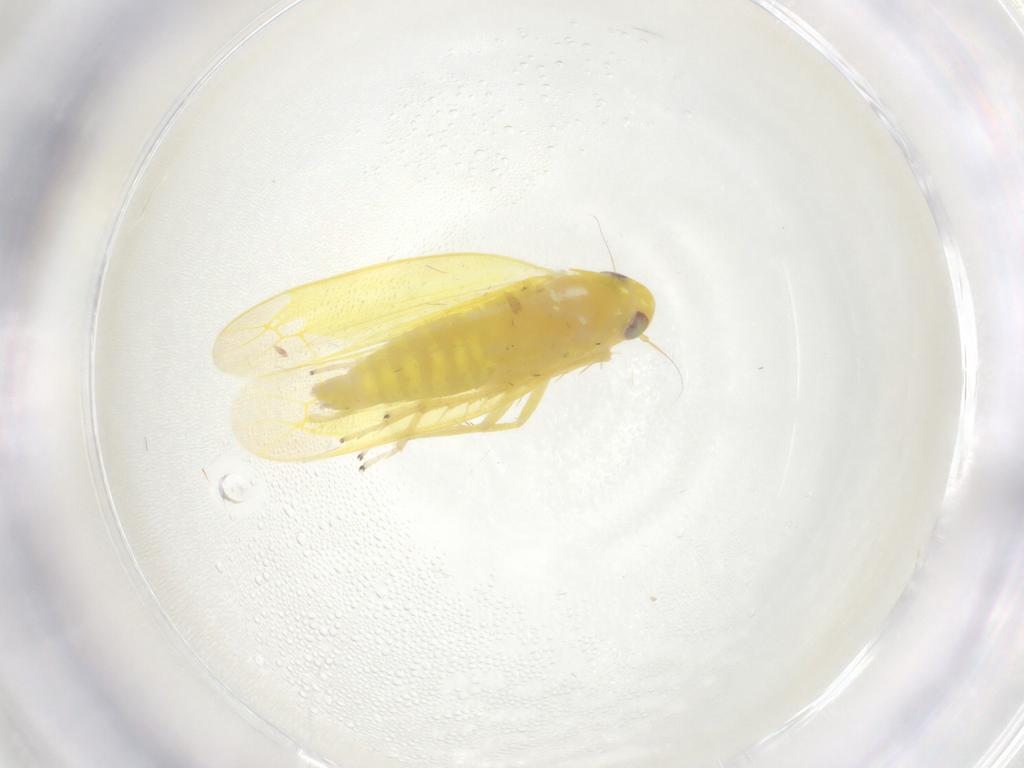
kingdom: Animalia
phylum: Arthropoda
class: Insecta
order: Hemiptera
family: Cicadellidae
